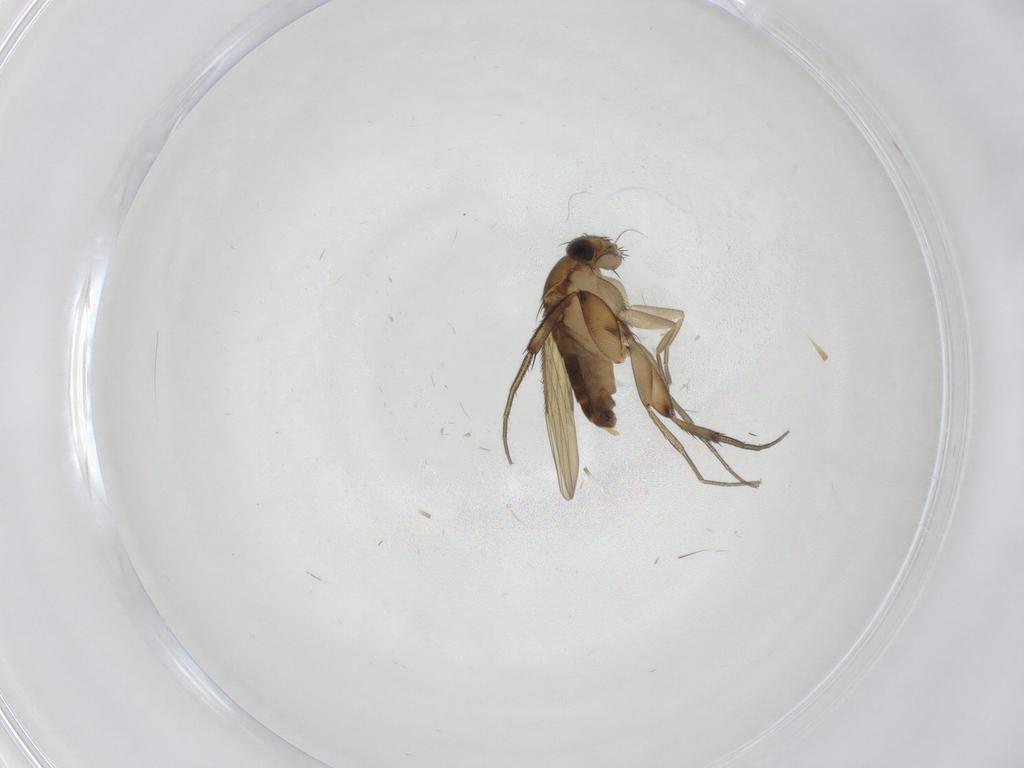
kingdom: Animalia
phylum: Arthropoda
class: Insecta
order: Diptera
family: Phoridae
